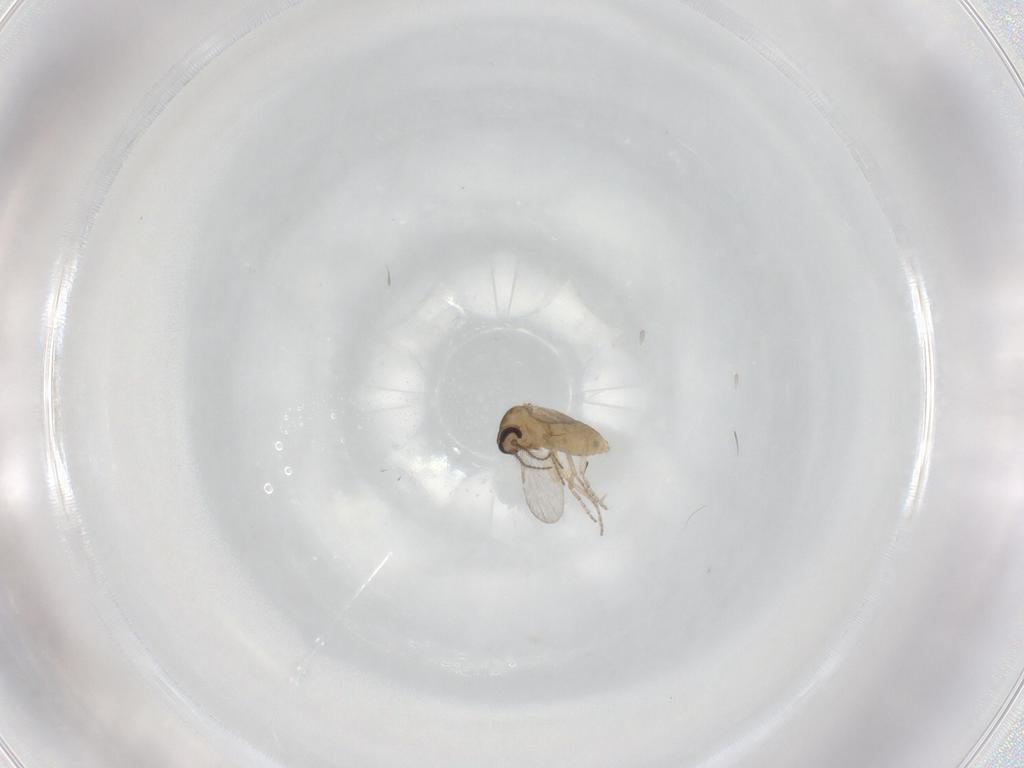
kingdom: Animalia
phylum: Arthropoda
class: Insecta
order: Diptera
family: Ceratopogonidae
